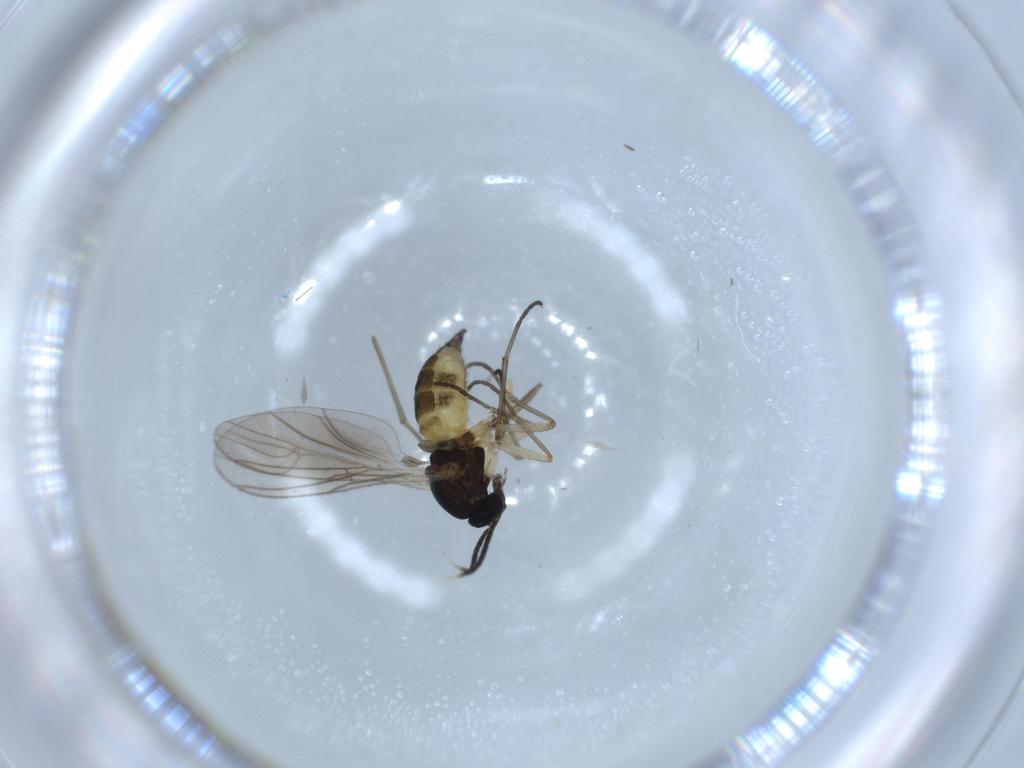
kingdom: Animalia
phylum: Arthropoda
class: Insecta
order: Diptera
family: Sciaridae
